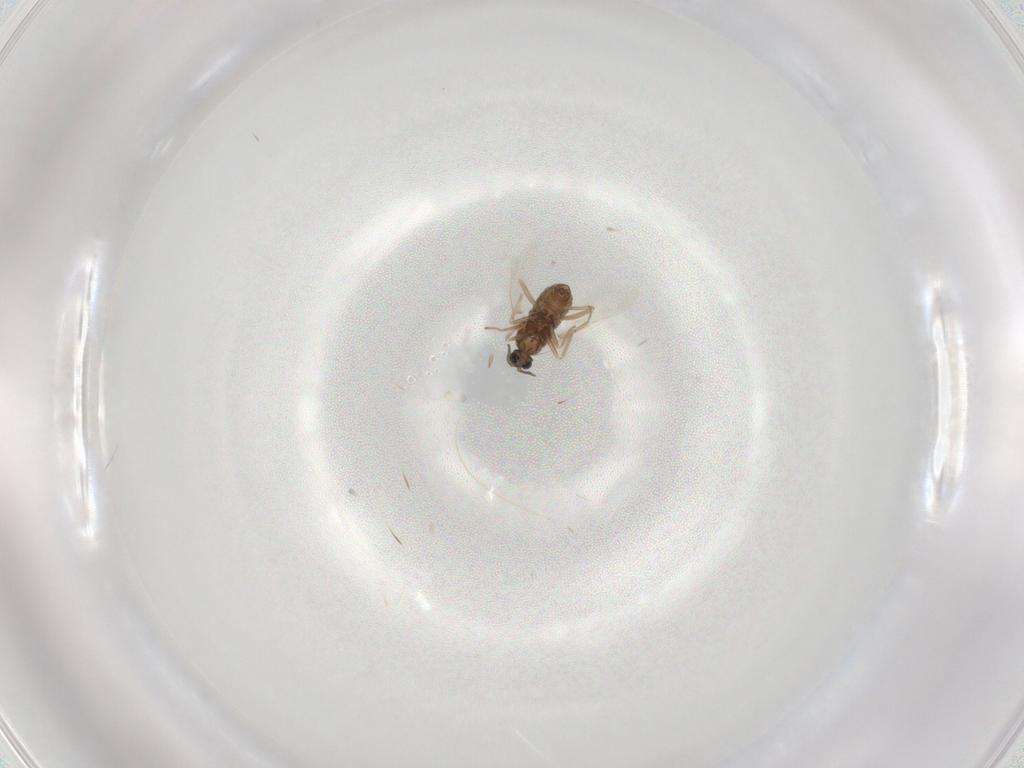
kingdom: Animalia
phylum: Arthropoda
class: Insecta
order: Diptera
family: Cecidomyiidae
